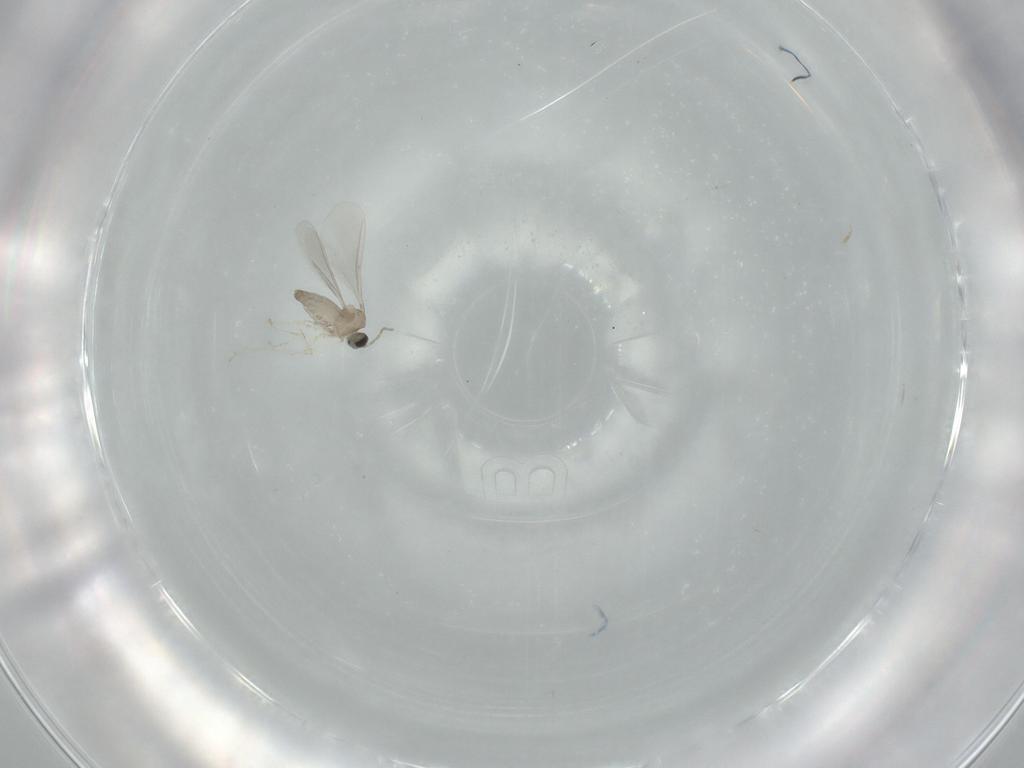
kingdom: Animalia
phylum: Arthropoda
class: Insecta
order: Diptera
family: Cecidomyiidae
